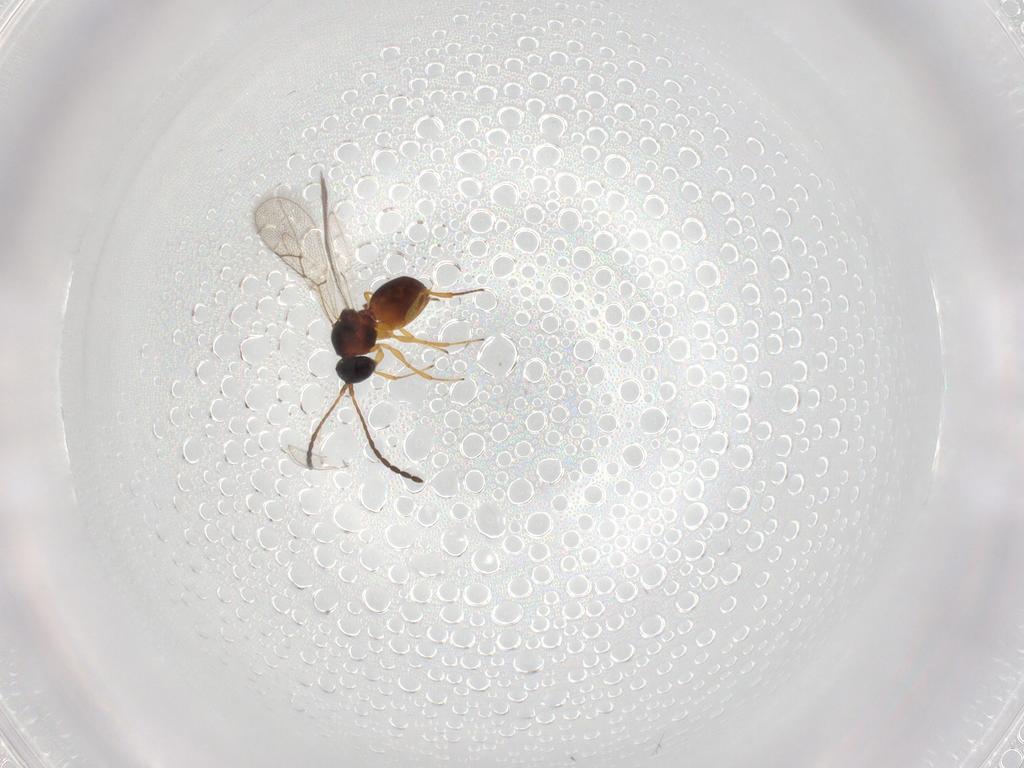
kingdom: Animalia
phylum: Arthropoda
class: Insecta
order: Hymenoptera
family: Figitidae
